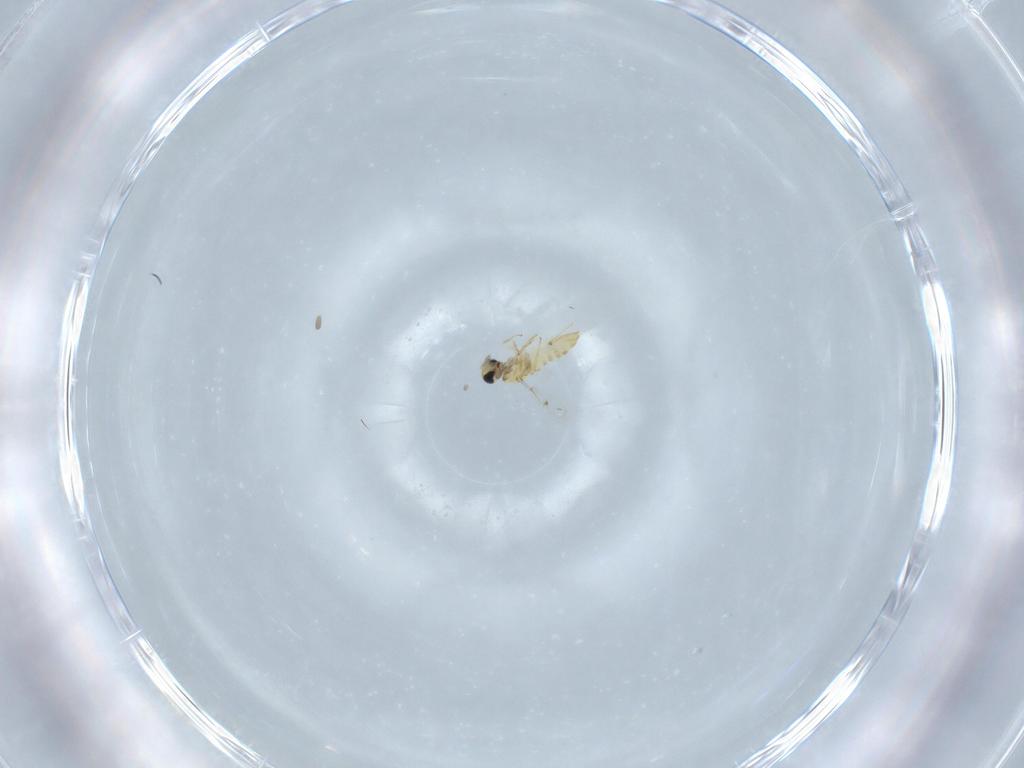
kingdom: Animalia
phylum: Arthropoda
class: Insecta
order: Hymenoptera
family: Trichogrammatidae
